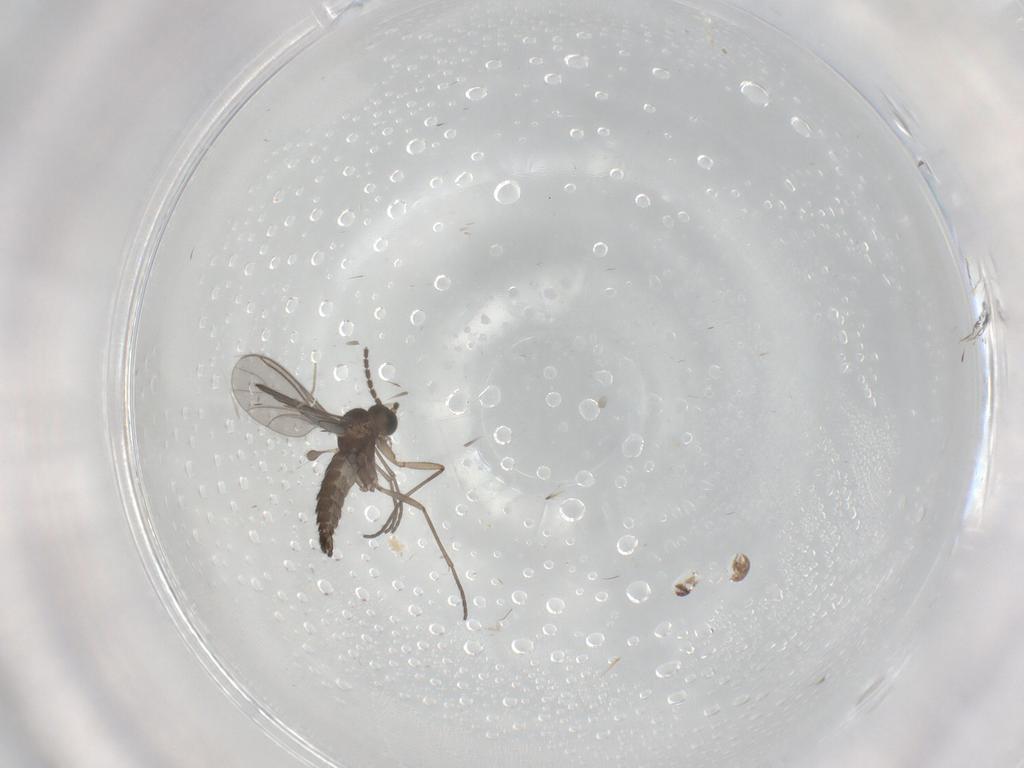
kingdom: Animalia
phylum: Arthropoda
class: Insecta
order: Diptera
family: Sciaridae
